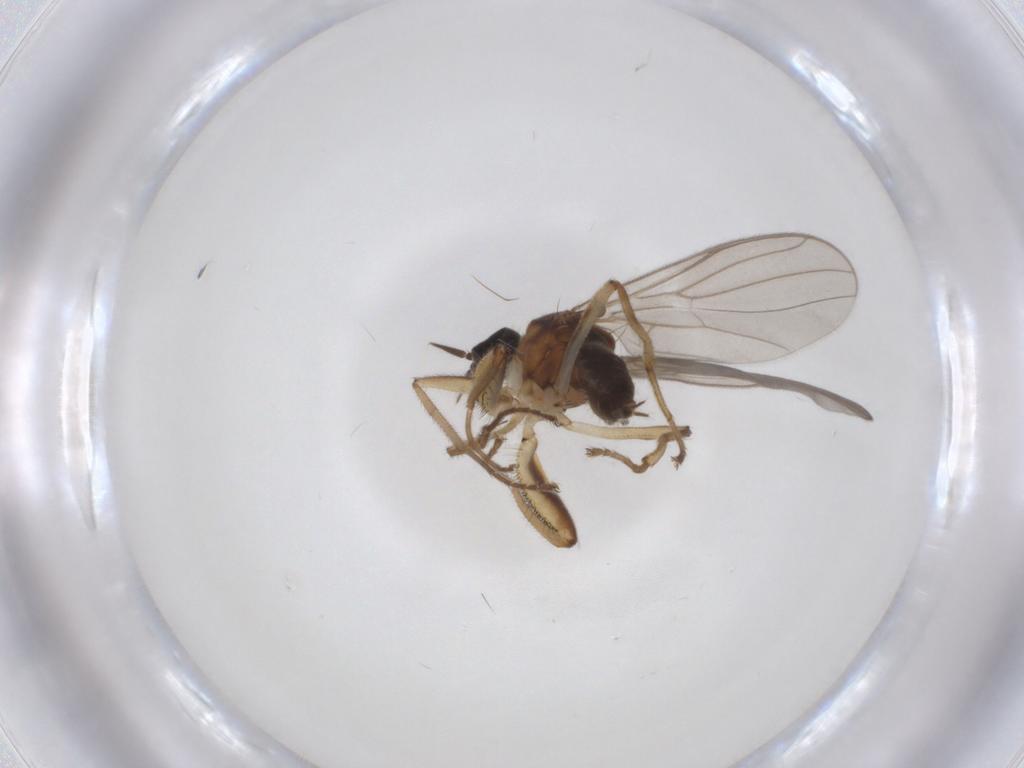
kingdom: Animalia
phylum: Arthropoda
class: Insecta
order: Diptera
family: Hybotidae
